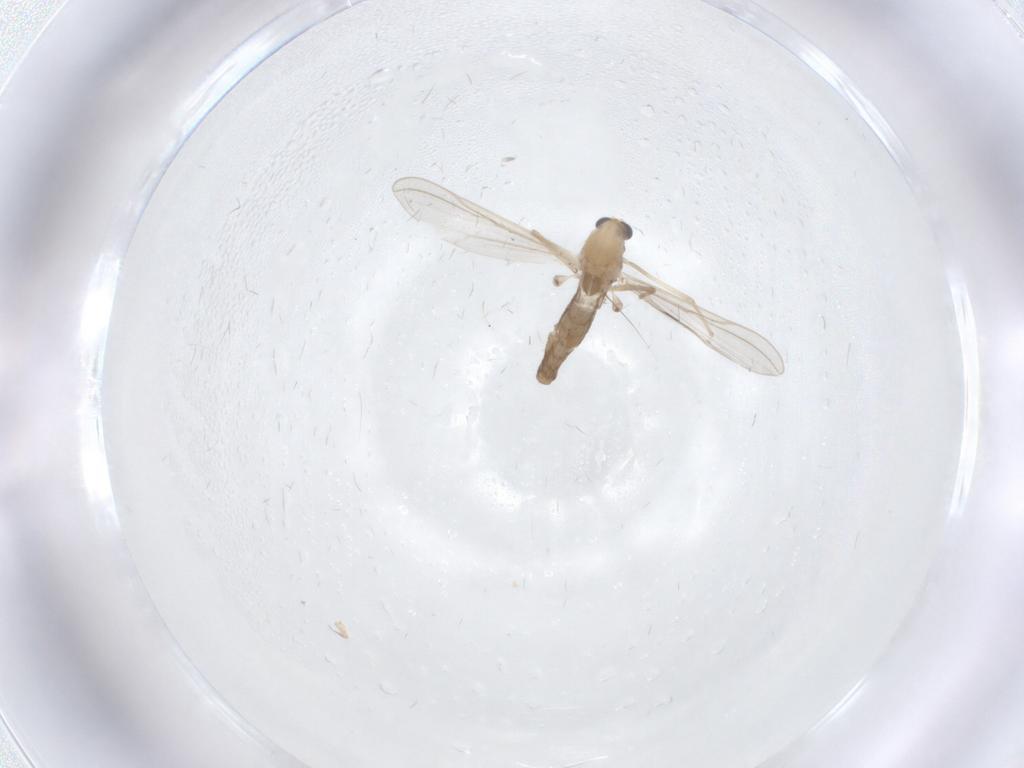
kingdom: Animalia
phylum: Arthropoda
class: Insecta
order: Diptera
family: Chironomidae
